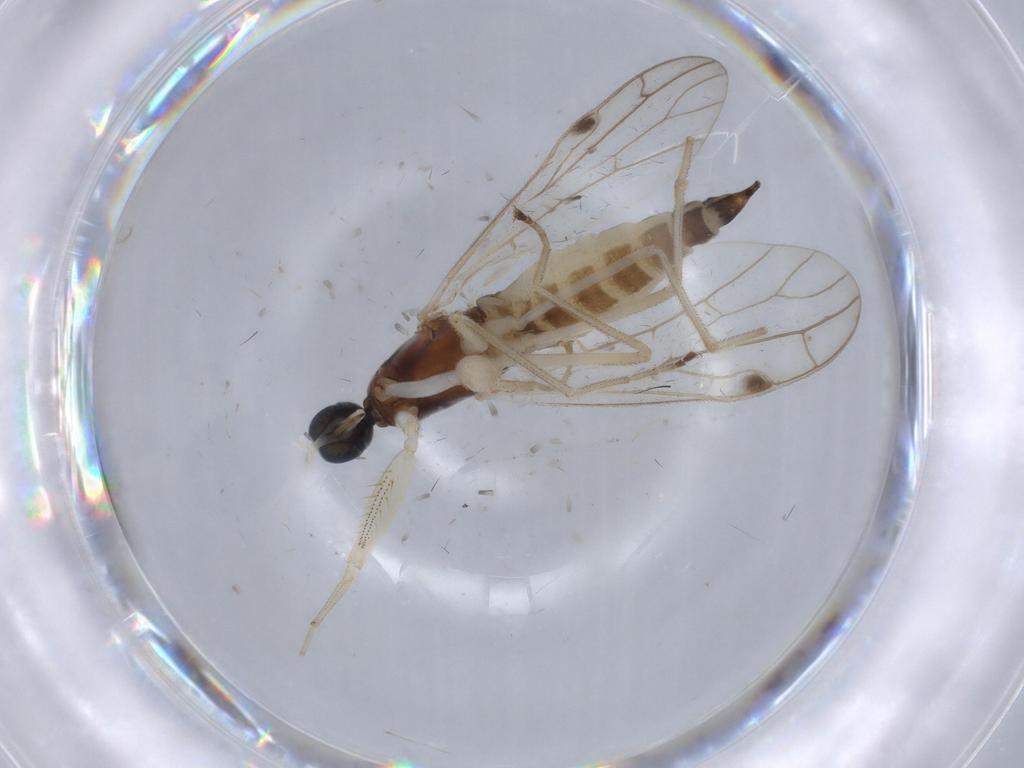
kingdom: Animalia
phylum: Arthropoda
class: Insecta
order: Diptera
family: Chironomidae
